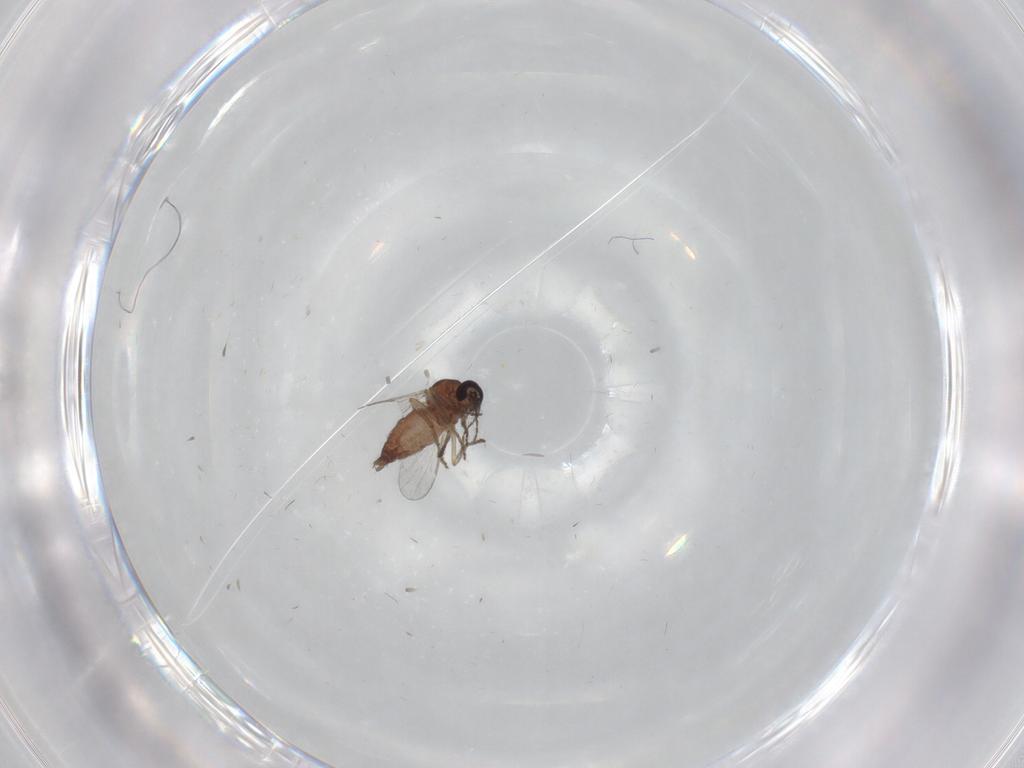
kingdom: Animalia
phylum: Arthropoda
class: Insecta
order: Diptera
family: Ceratopogonidae
